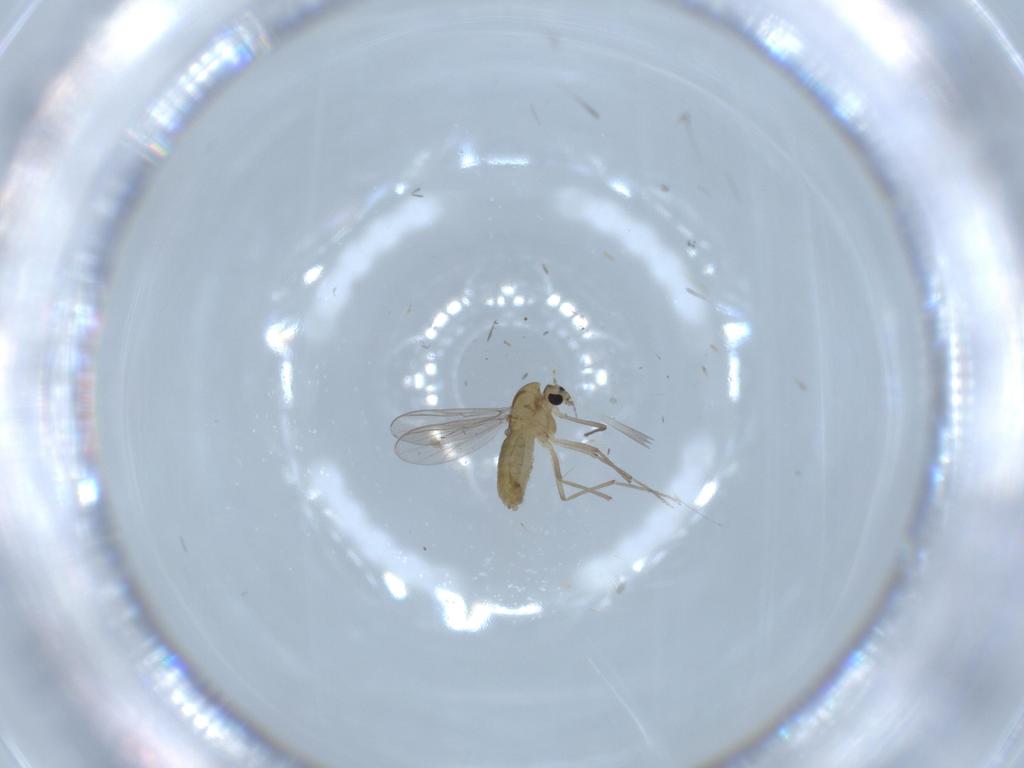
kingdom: Animalia
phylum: Arthropoda
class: Insecta
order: Diptera
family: Chironomidae
